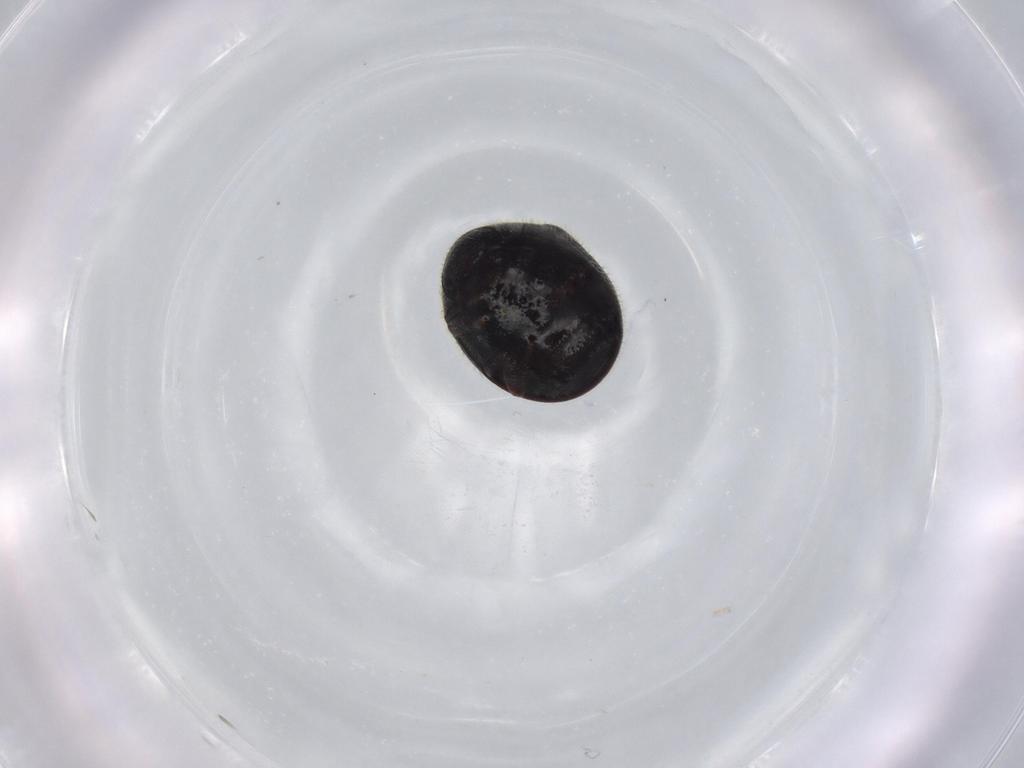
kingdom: Animalia
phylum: Arthropoda
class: Insecta
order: Coleoptera
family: Ptinidae
